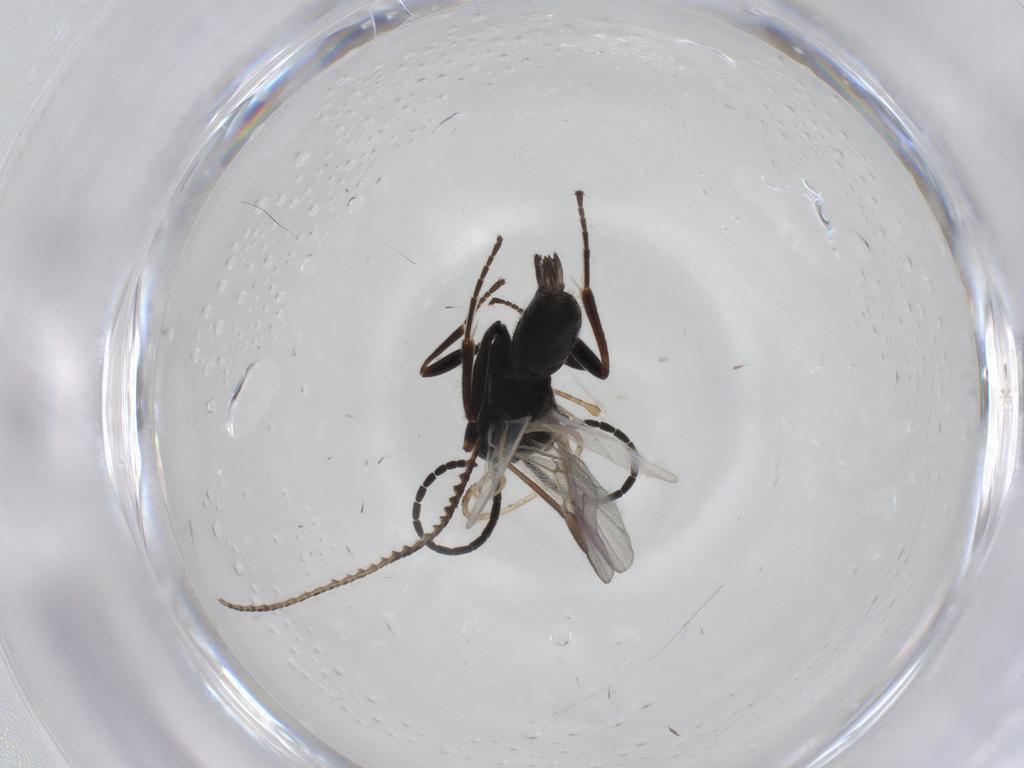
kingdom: Animalia
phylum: Arthropoda
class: Insecta
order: Hymenoptera
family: Braconidae
